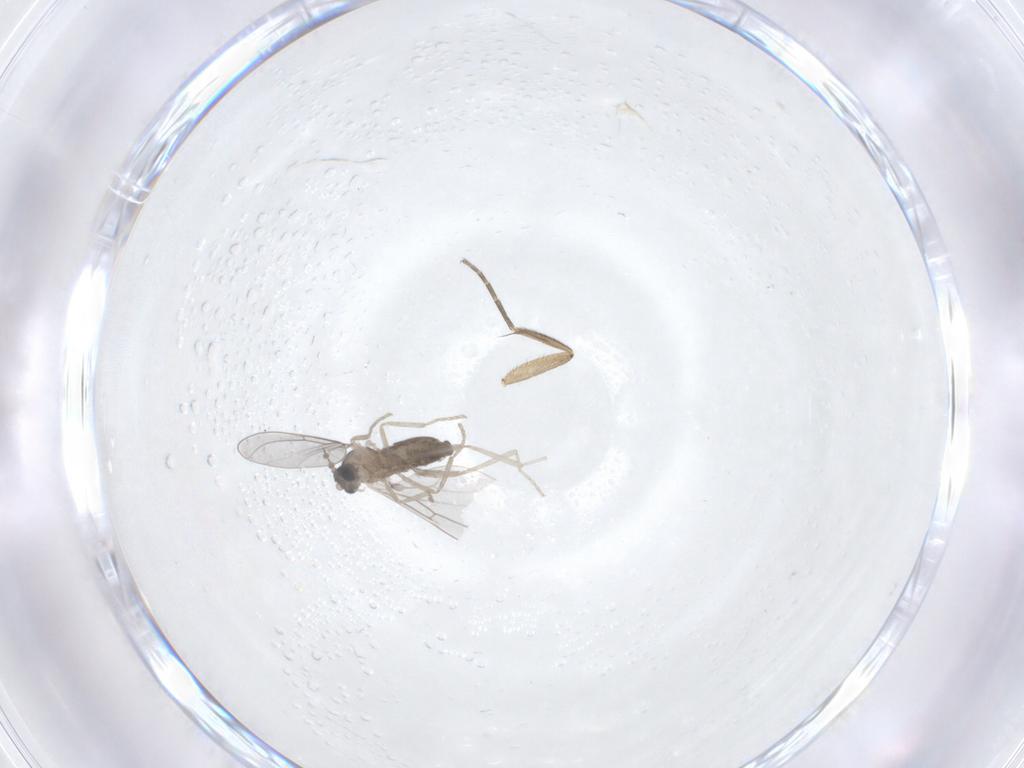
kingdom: Animalia
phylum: Arthropoda
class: Insecta
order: Diptera
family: Cecidomyiidae
